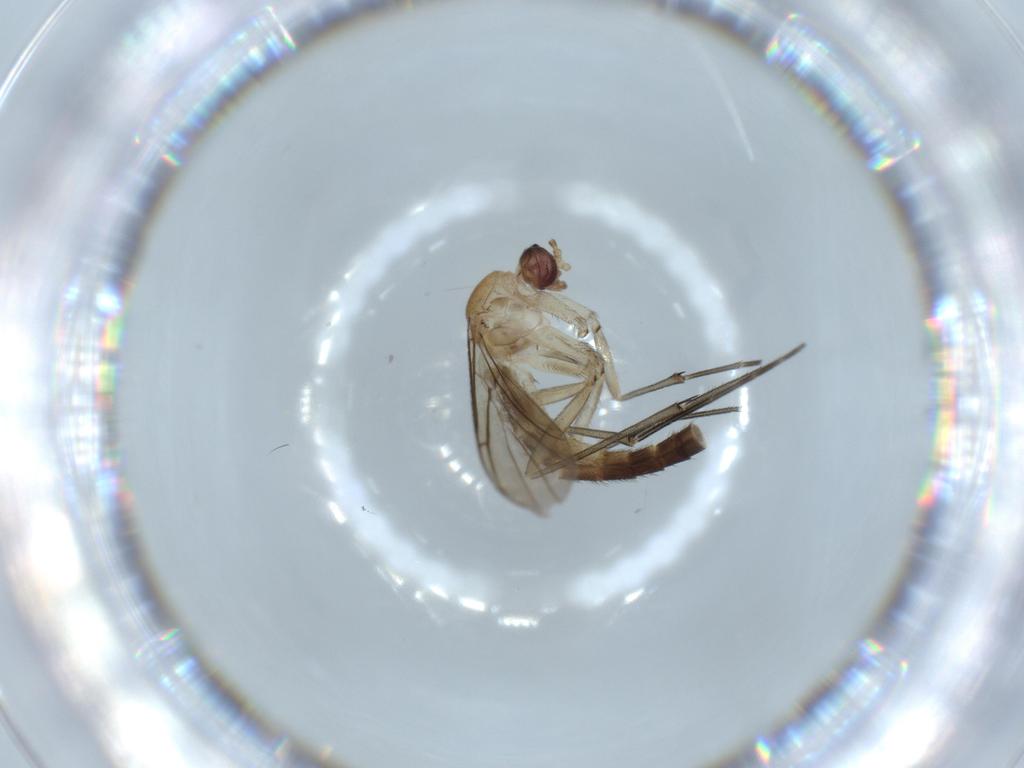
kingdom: Animalia
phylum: Arthropoda
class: Insecta
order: Diptera
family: Keroplatidae
